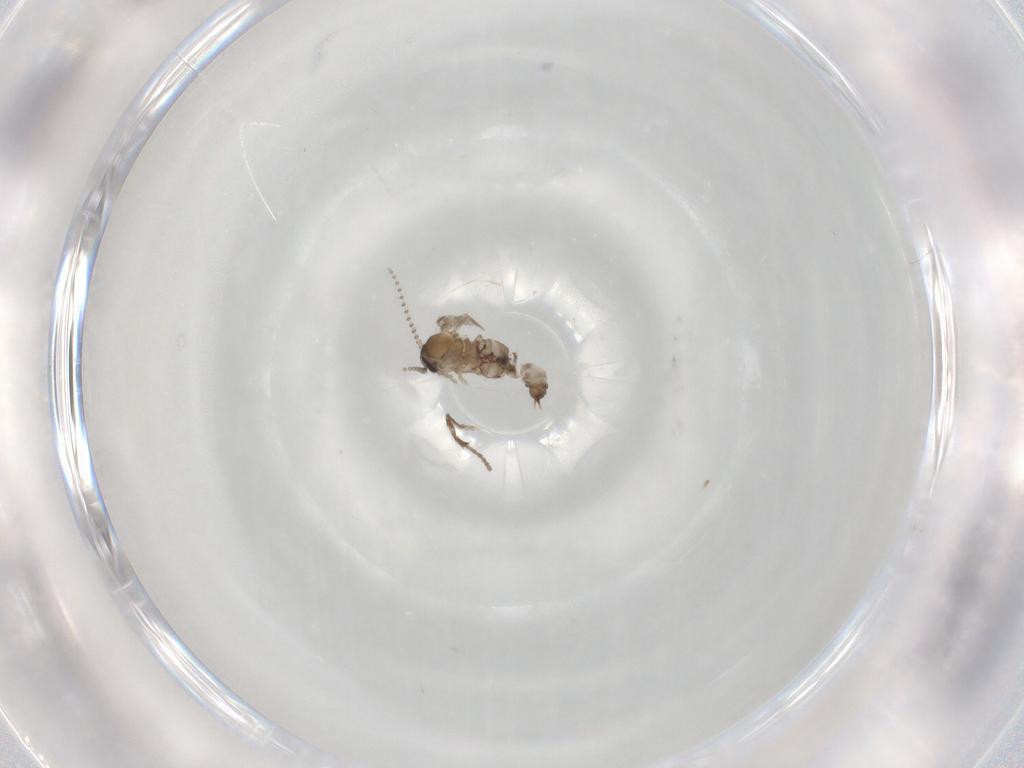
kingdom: Animalia
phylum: Arthropoda
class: Insecta
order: Diptera
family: Psychodidae
